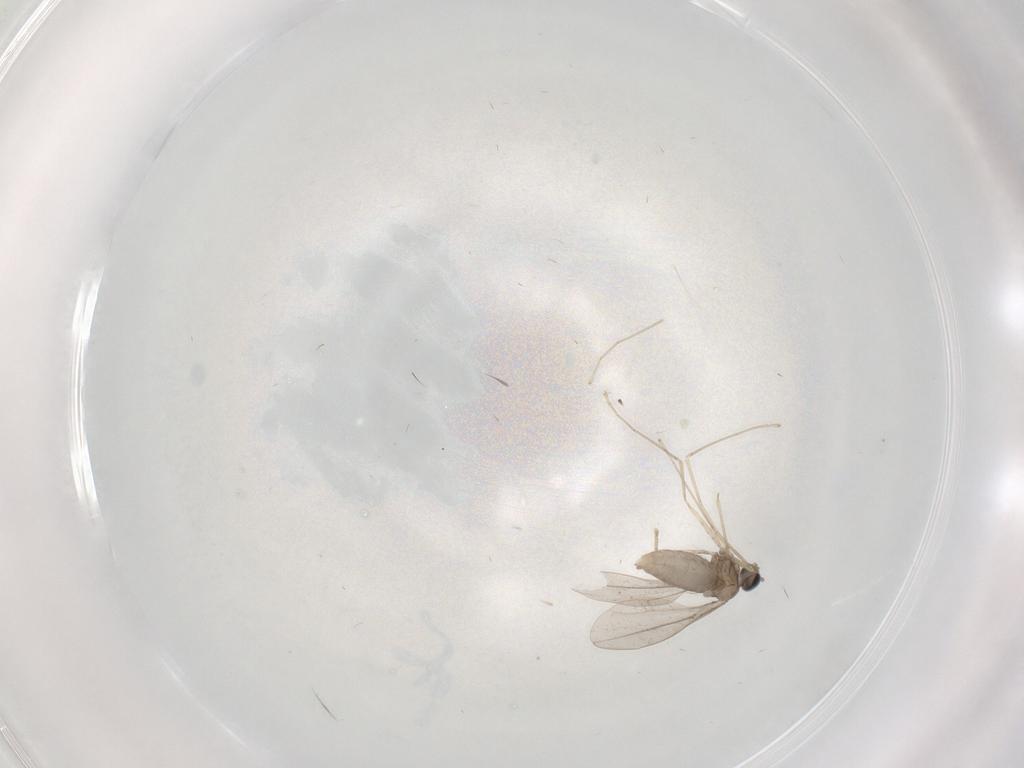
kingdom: Animalia
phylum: Arthropoda
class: Insecta
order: Diptera
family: Cecidomyiidae
